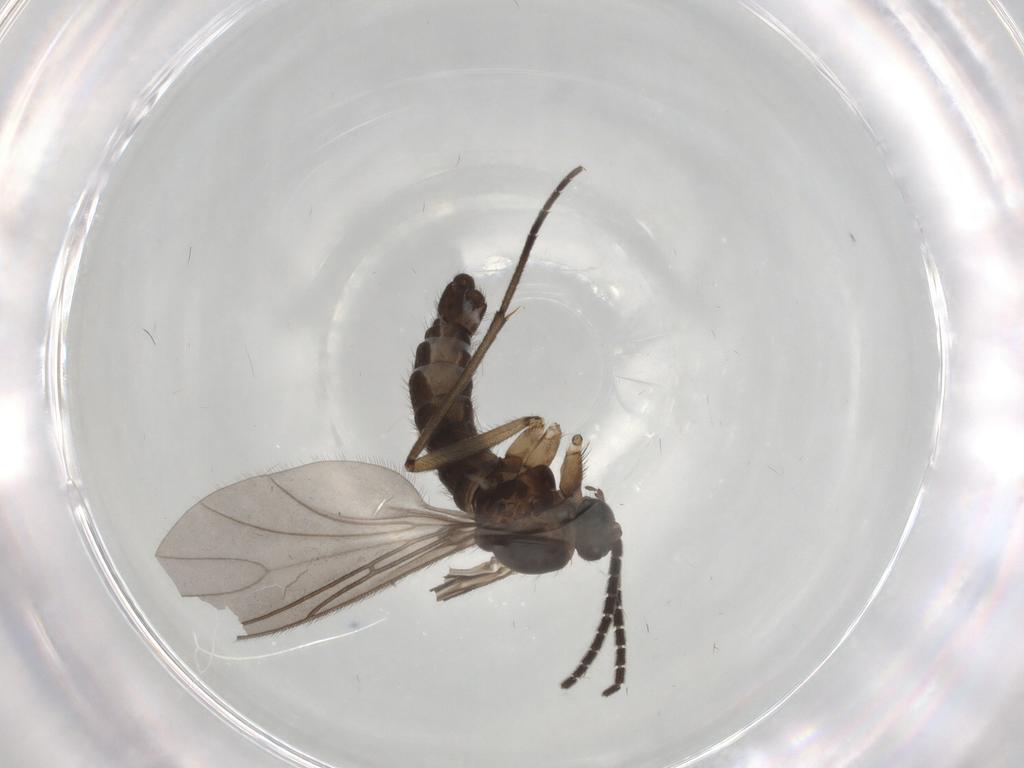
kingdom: Animalia
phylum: Arthropoda
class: Insecta
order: Diptera
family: Sciaridae
